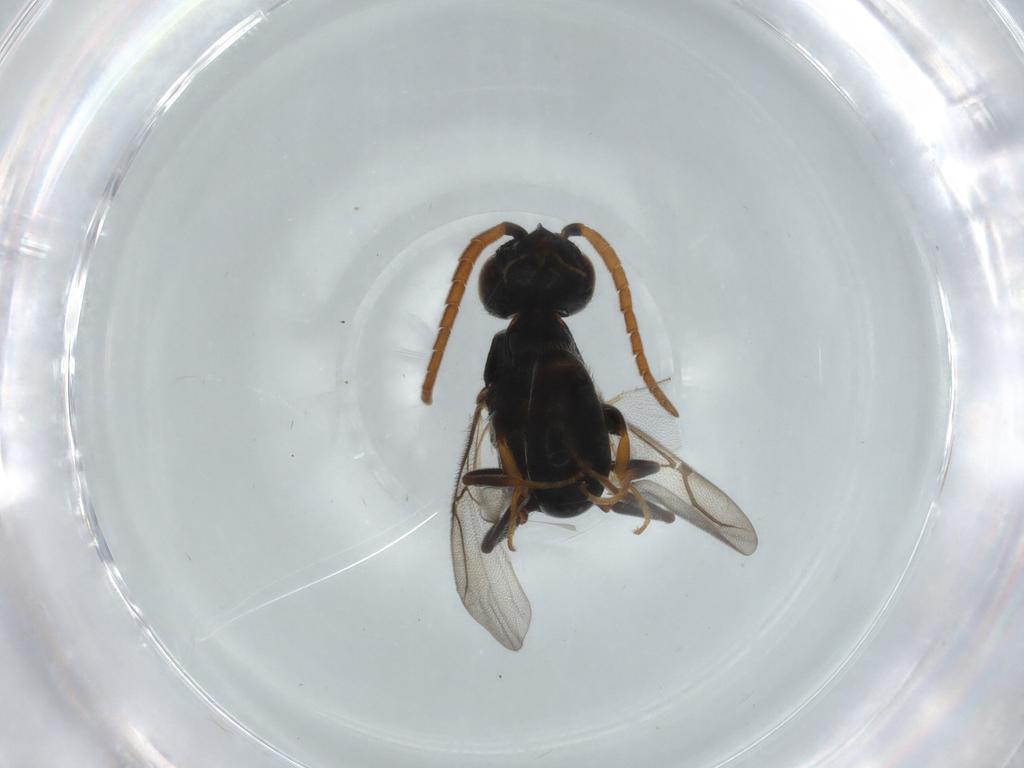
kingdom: Animalia
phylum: Arthropoda
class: Insecta
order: Hymenoptera
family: Bethylidae
